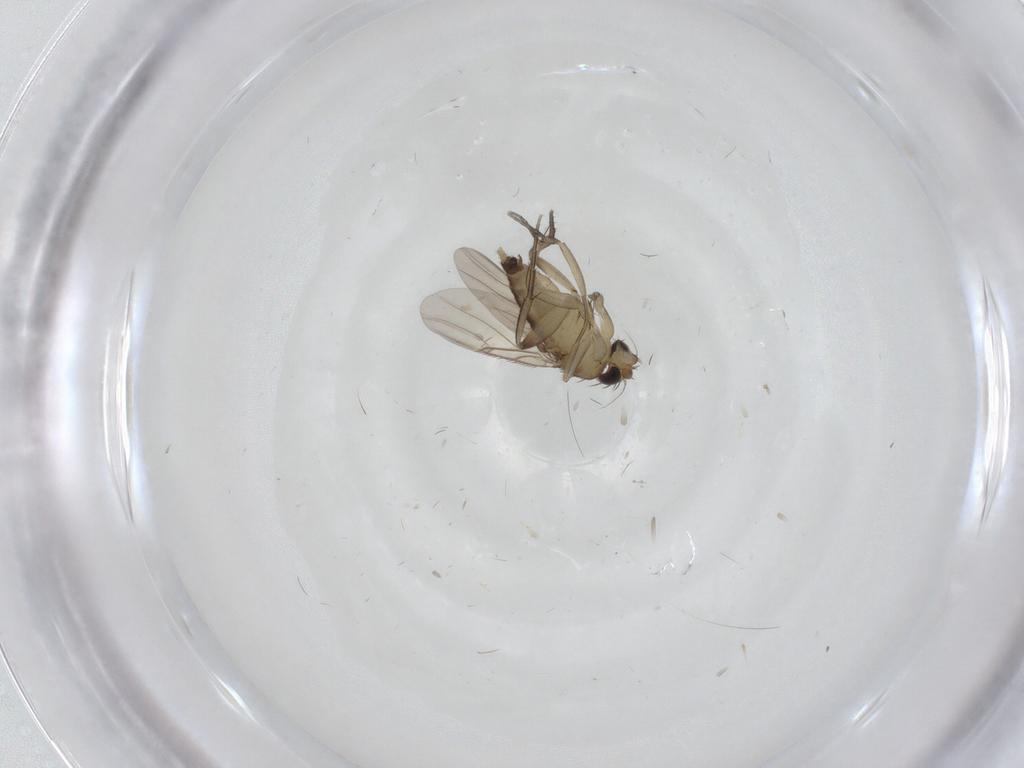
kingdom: Animalia
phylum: Arthropoda
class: Insecta
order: Diptera
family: Phoridae
